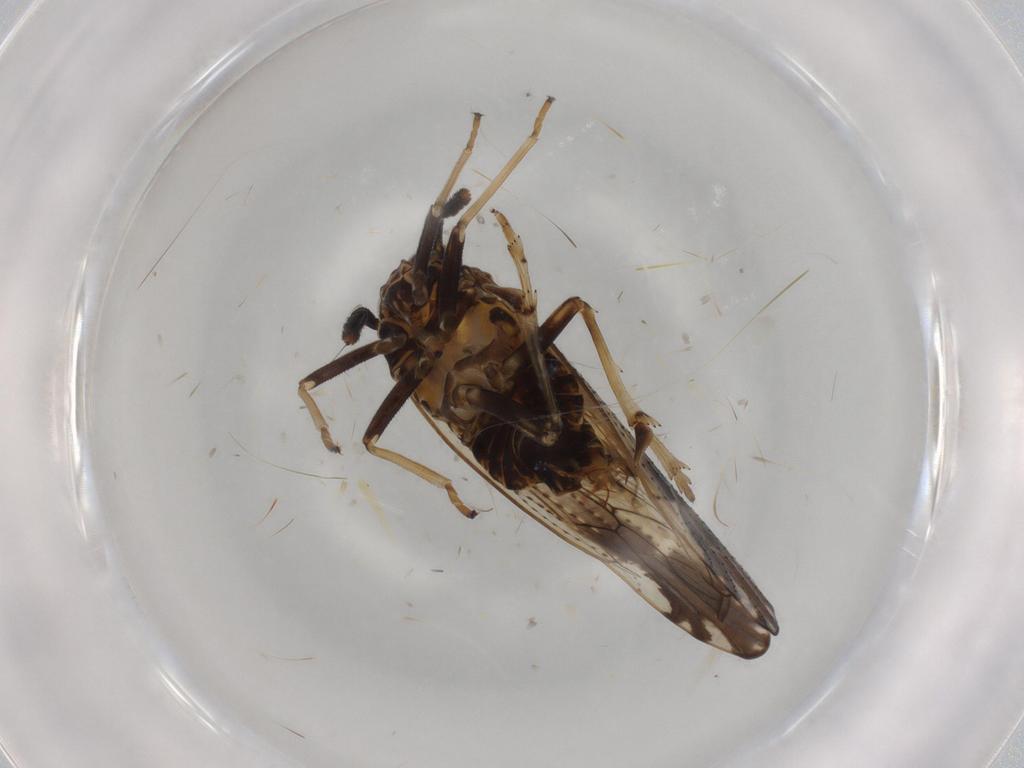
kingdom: Animalia
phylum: Arthropoda
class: Insecta
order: Hemiptera
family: Delphacidae
